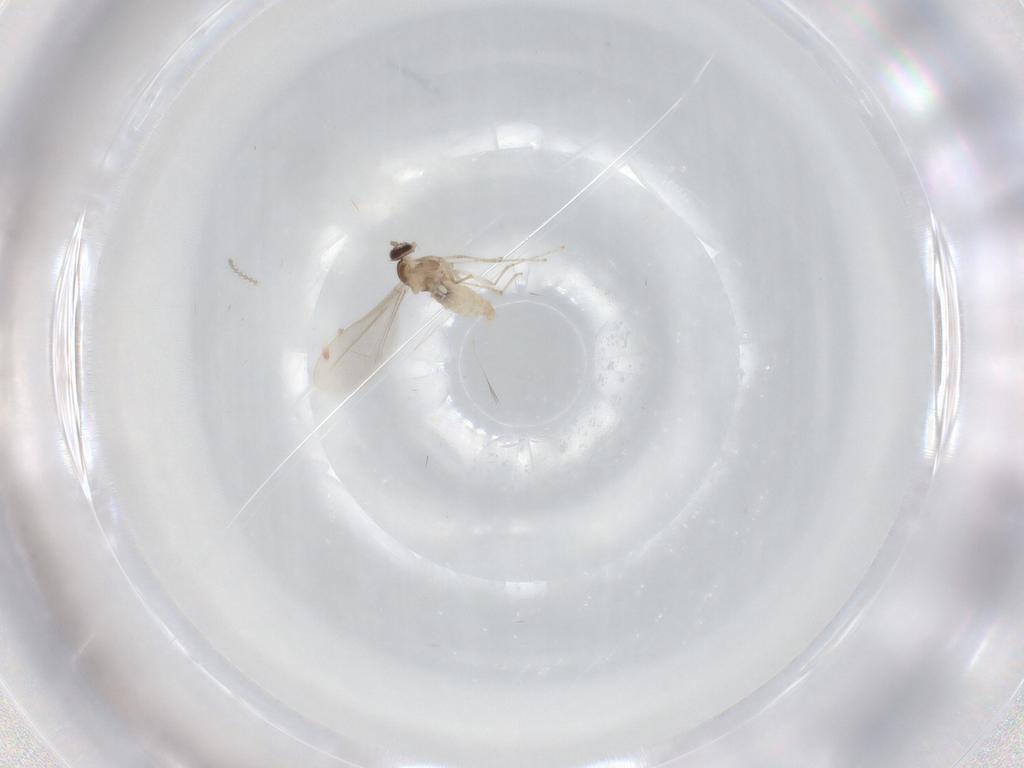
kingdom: Animalia
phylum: Arthropoda
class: Insecta
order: Diptera
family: Cecidomyiidae
